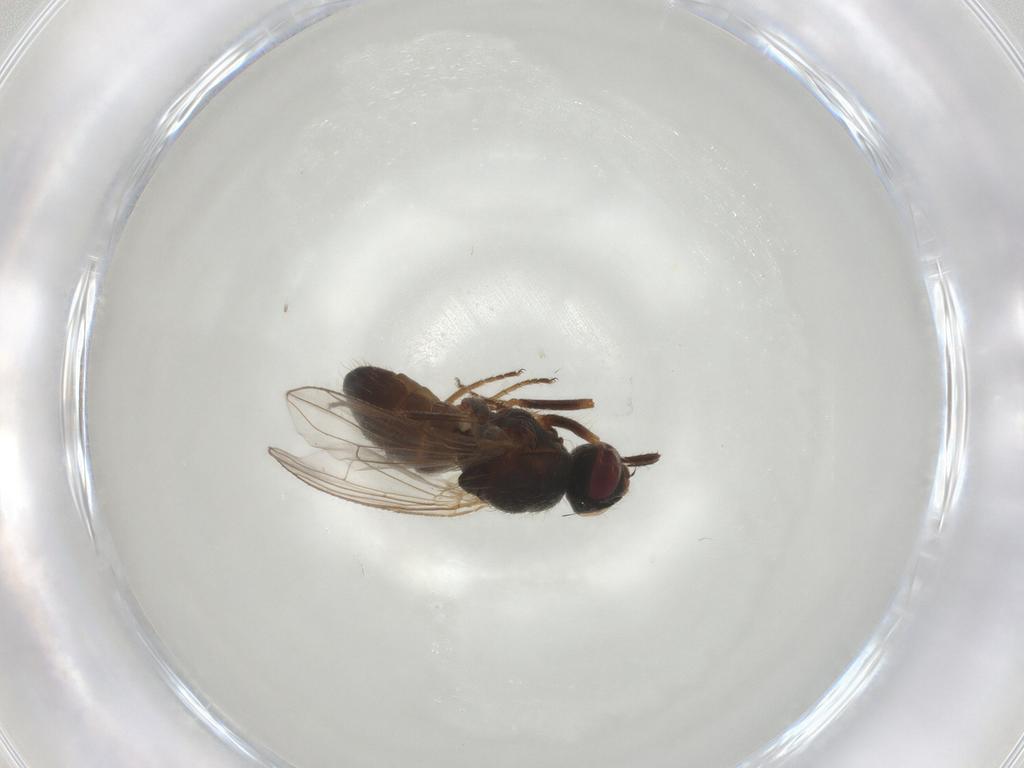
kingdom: Animalia
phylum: Arthropoda
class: Insecta
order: Diptera
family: Muscidae
